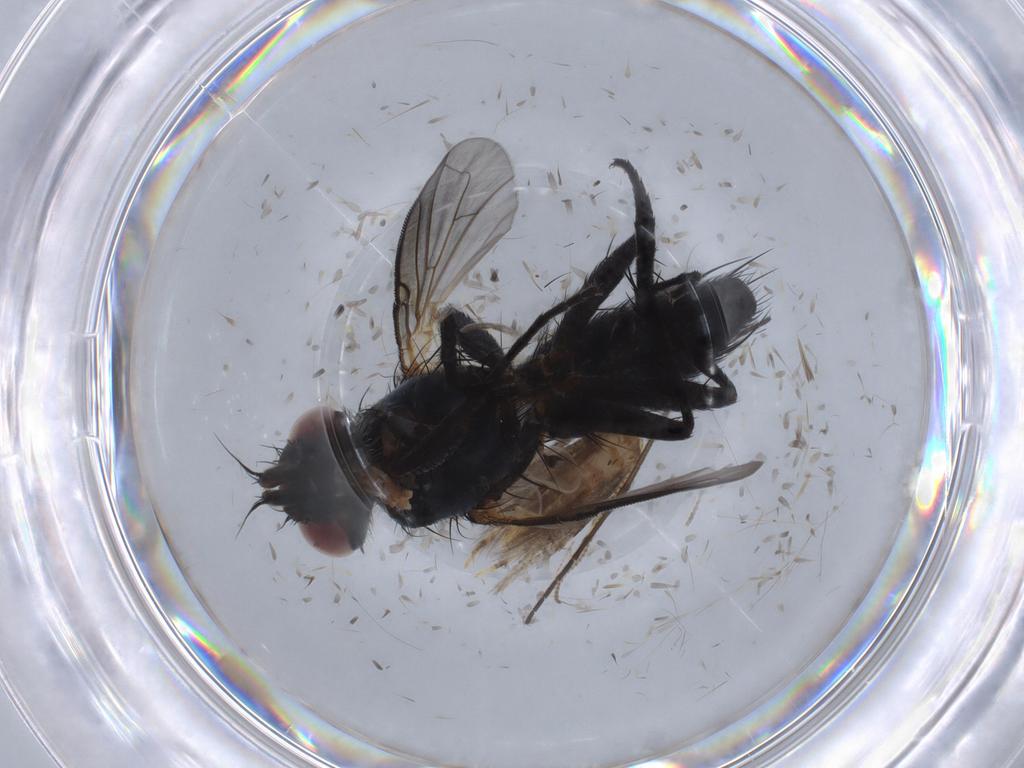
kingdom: Animalia
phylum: Arthropoda
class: Insecta
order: Diptera
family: Tachinidae
